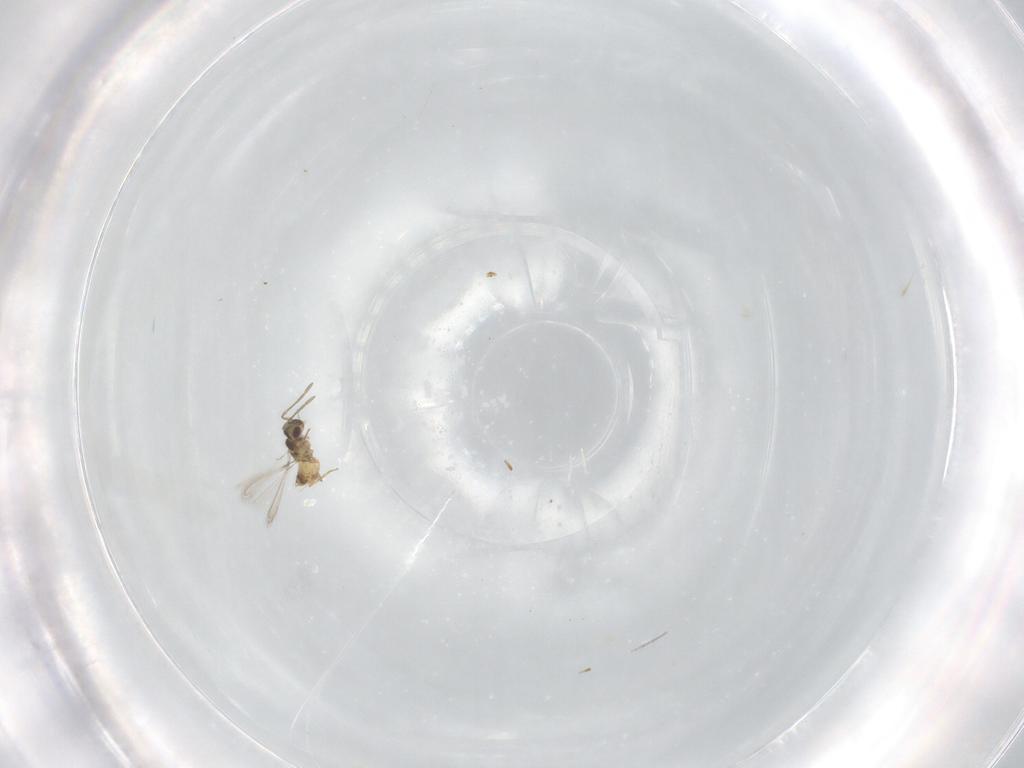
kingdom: Animalia
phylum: Arthropoda
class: Insecta
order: Hymenoptera
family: Mymaridae
